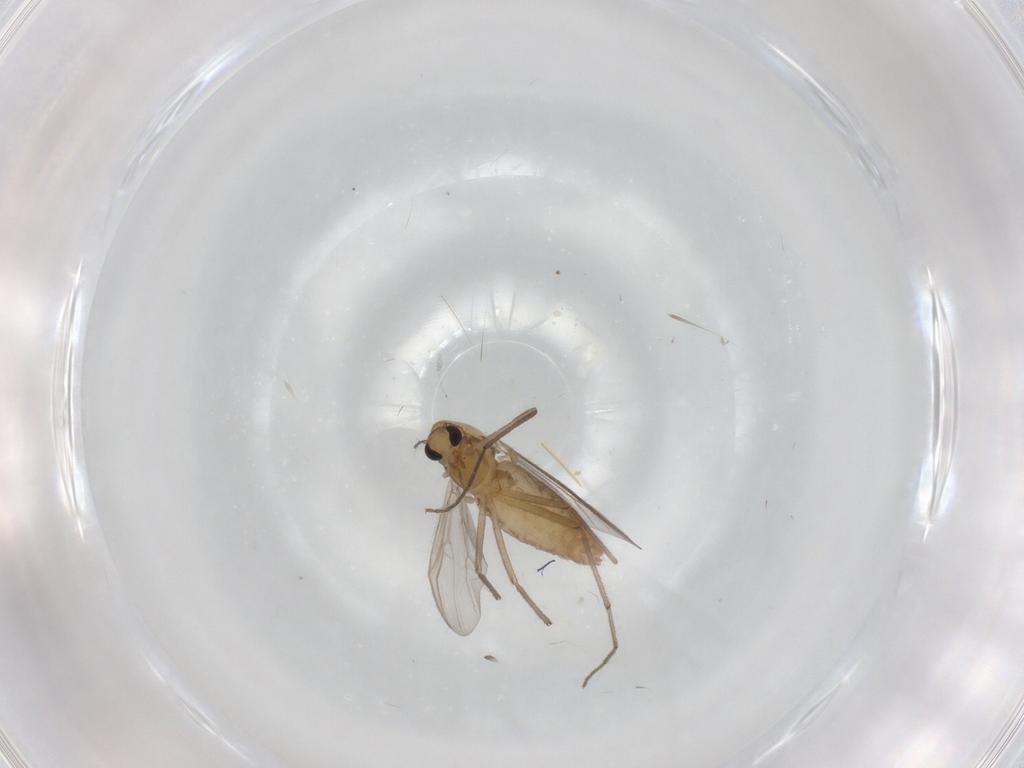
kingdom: Animalia
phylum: Arthropoda
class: Insecta
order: Diptera
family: Chironomidae
